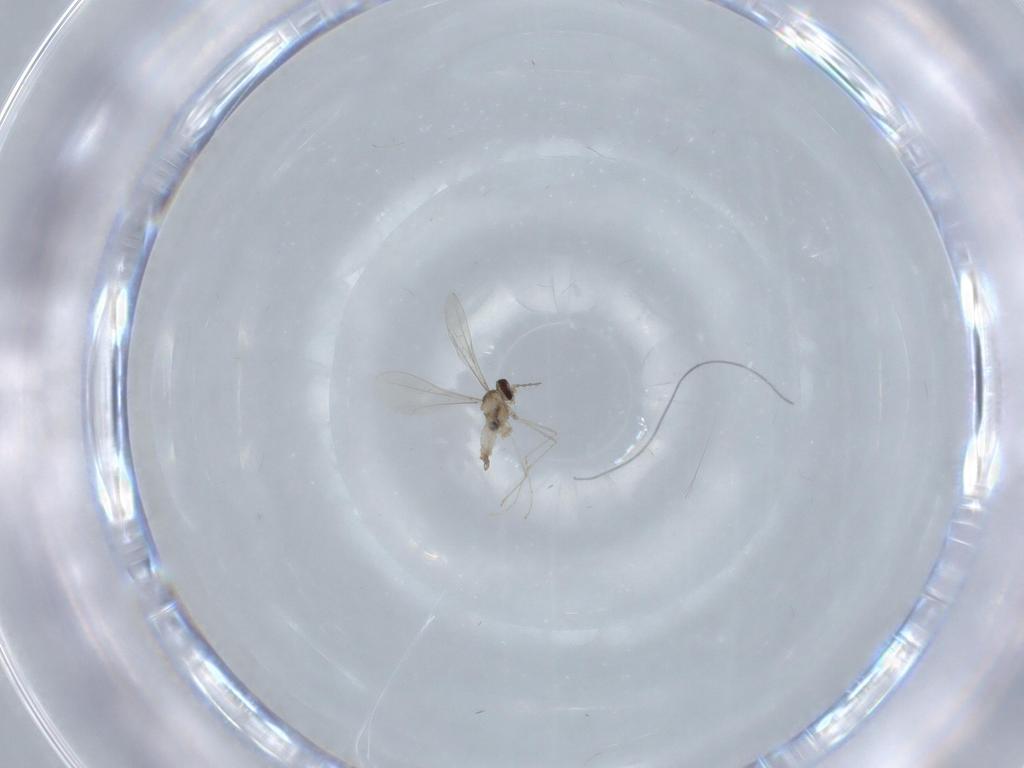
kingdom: Animalia
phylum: Arthropoda
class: Insecta
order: Diptera
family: Cecidomyiidae
